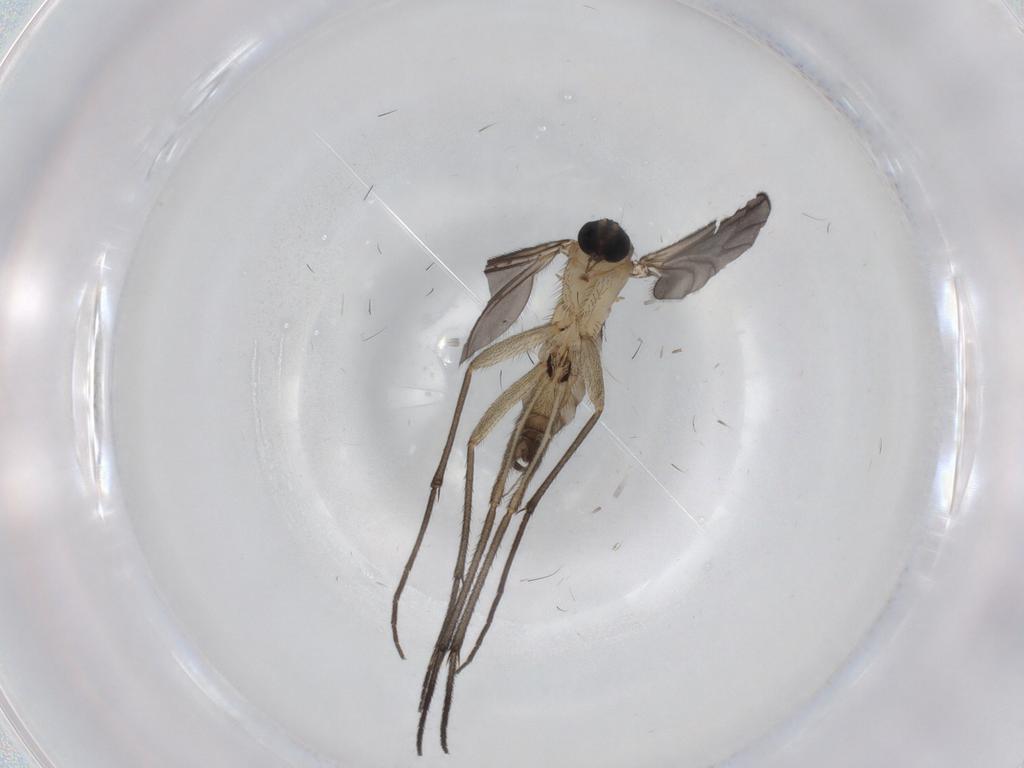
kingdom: Animalia
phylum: Arthropoda
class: Insecta
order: Diptera
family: Sciaridae
